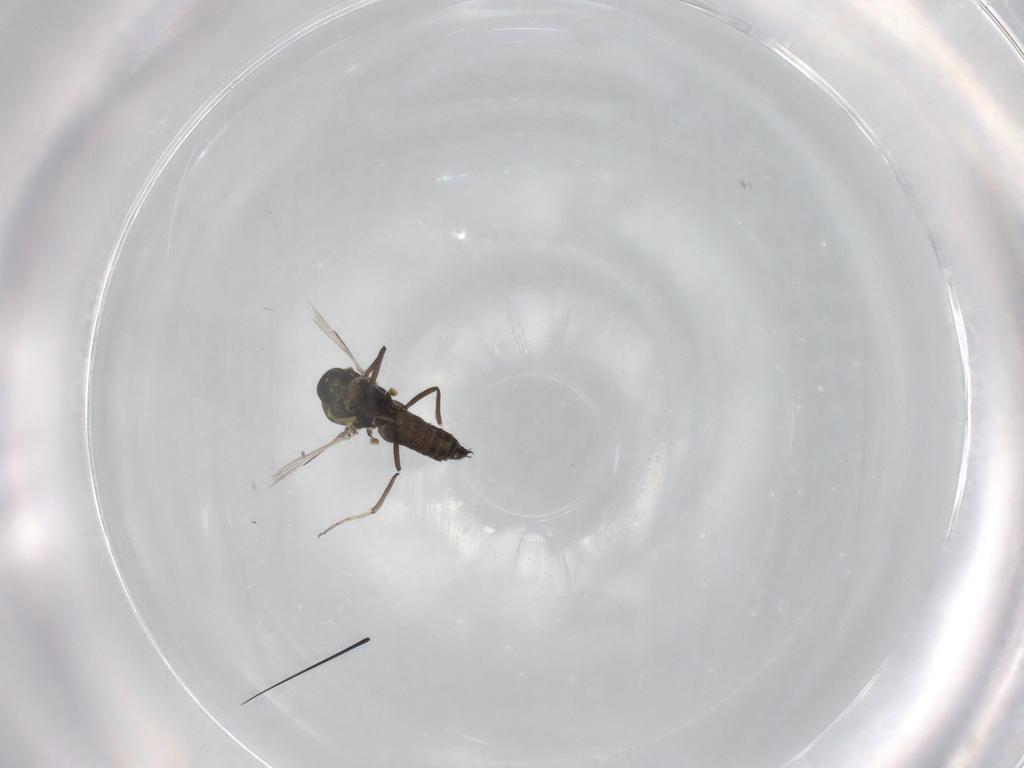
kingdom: Animalia
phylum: Arthropoda
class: Insecta
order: Diptera
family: Ceratopogonidae
